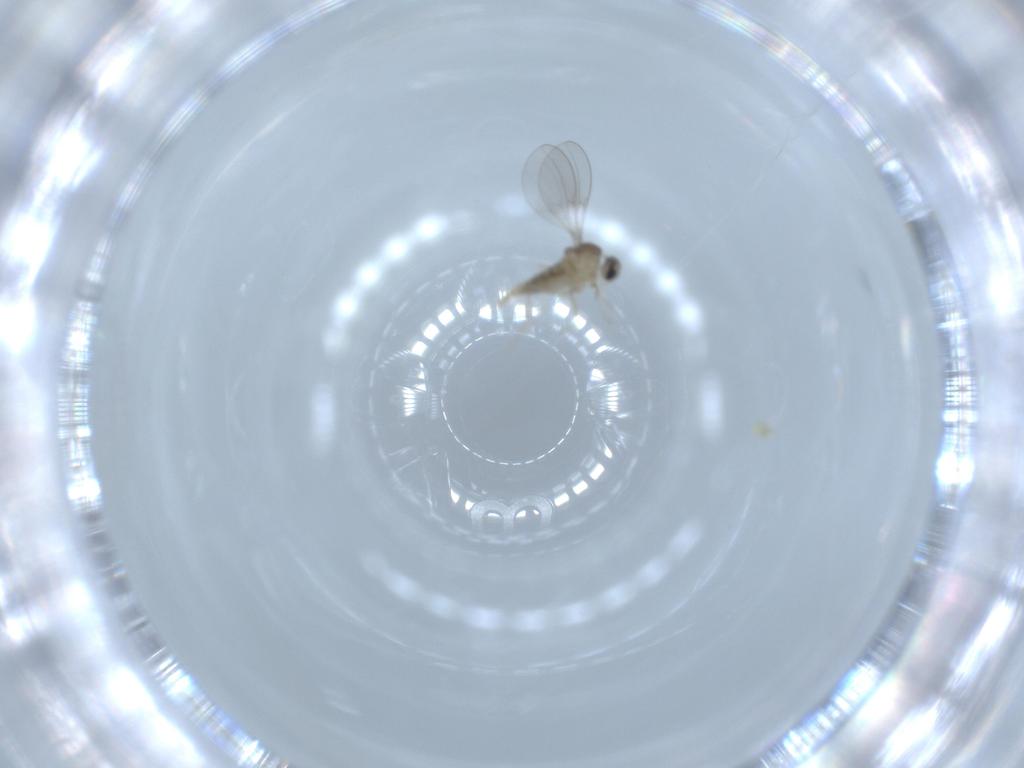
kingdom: Animalia
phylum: Arthropoda
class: Insecta
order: Diptera
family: Cecidomyiidae
